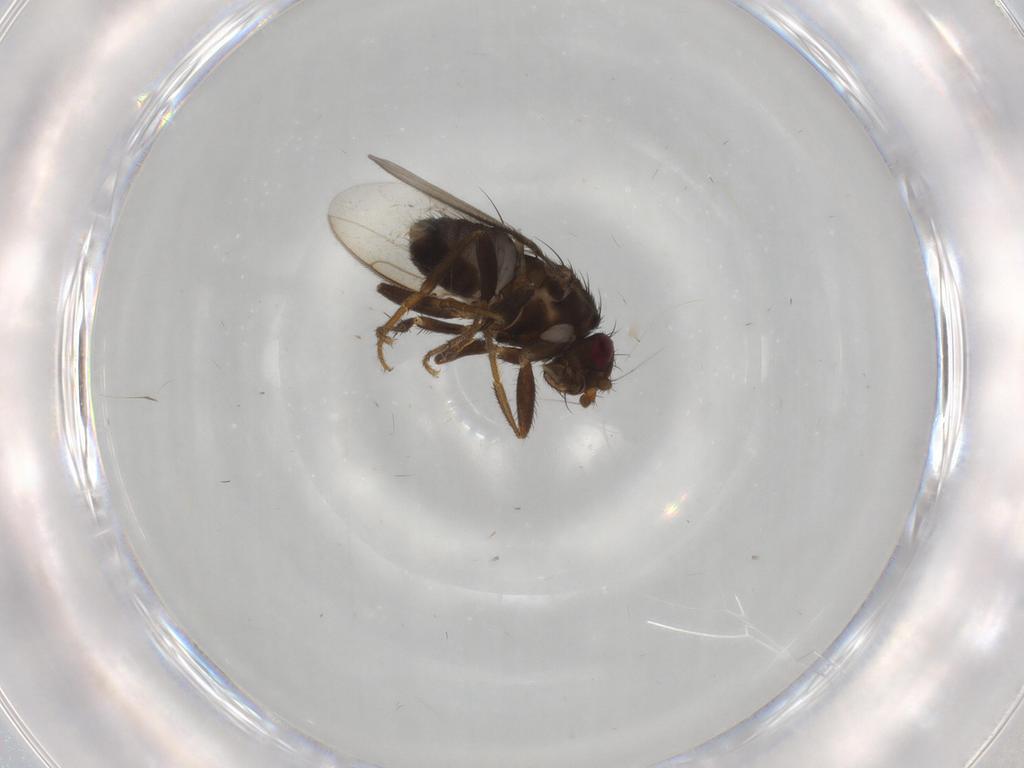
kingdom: Animalia
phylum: Arthropoda
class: Insecta
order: Diptera
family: Sphaeroceridae
